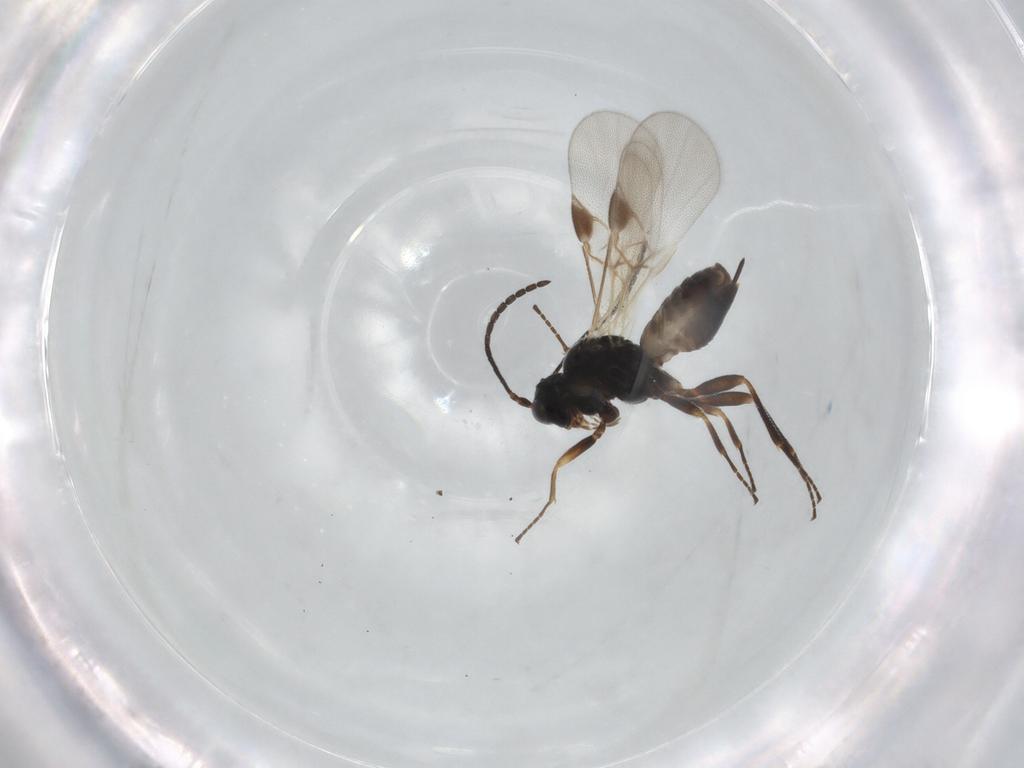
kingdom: Animalia
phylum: Arthropoda
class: Insecta
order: Hymenoptera
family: Braconidae
